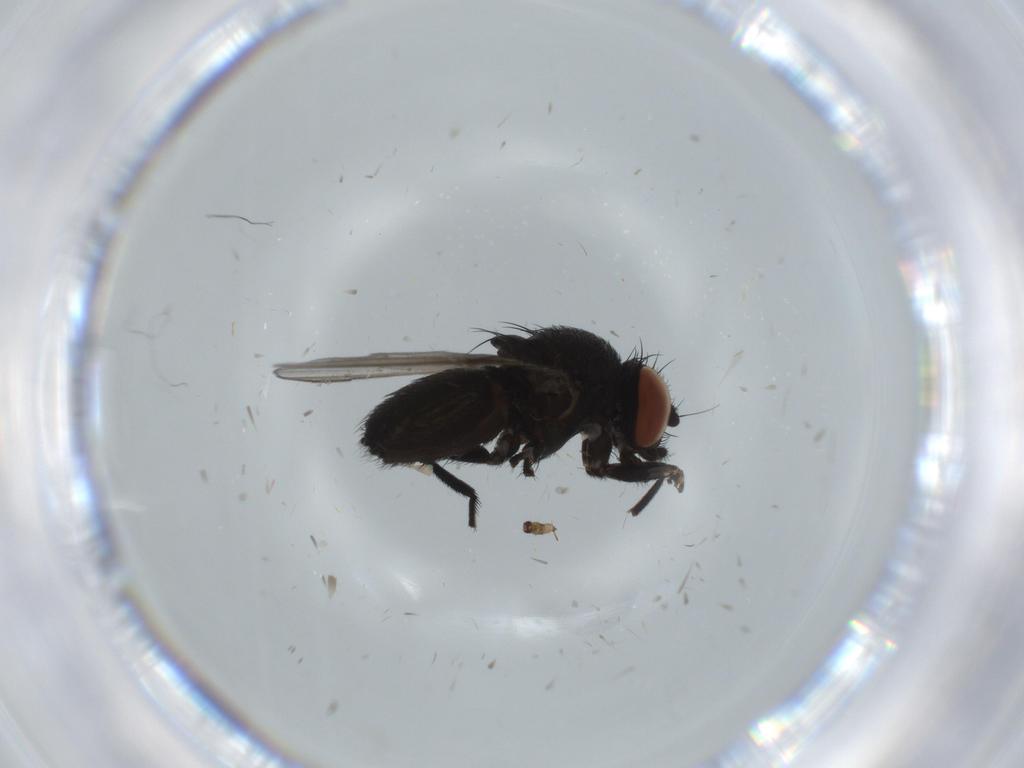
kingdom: Animalia
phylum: Arthropoda
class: Insecta
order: Diptera
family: Milichiidae
